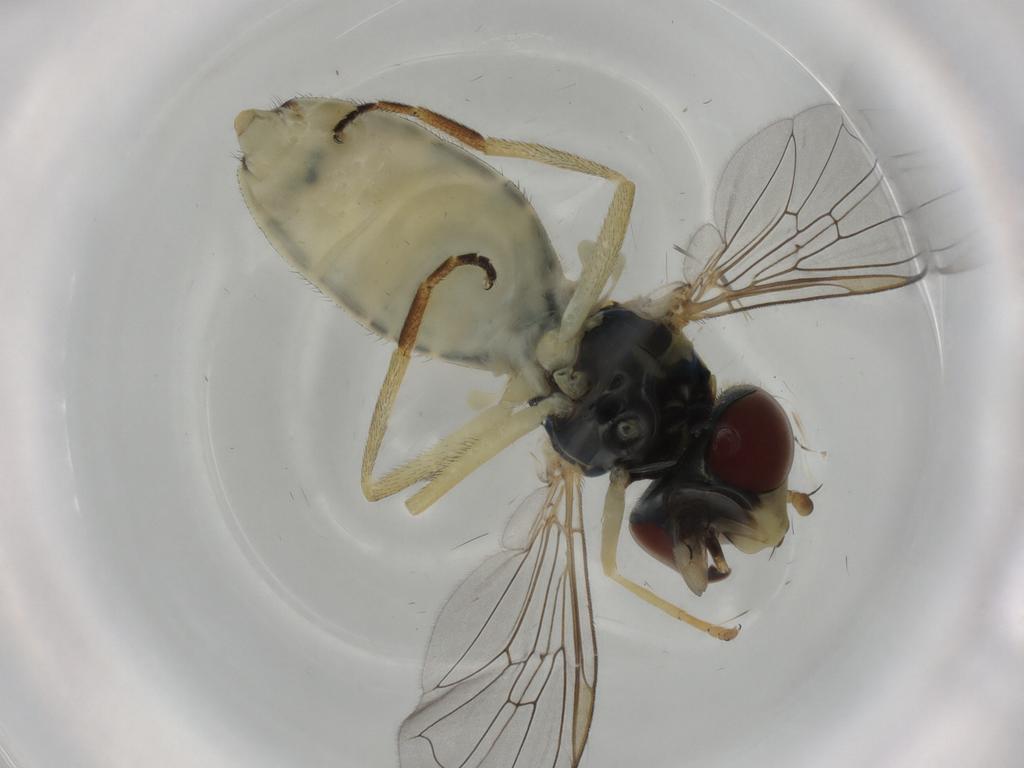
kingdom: Animalia
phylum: Arthropoda
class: Insecta
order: Diptera
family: Syrphidae
